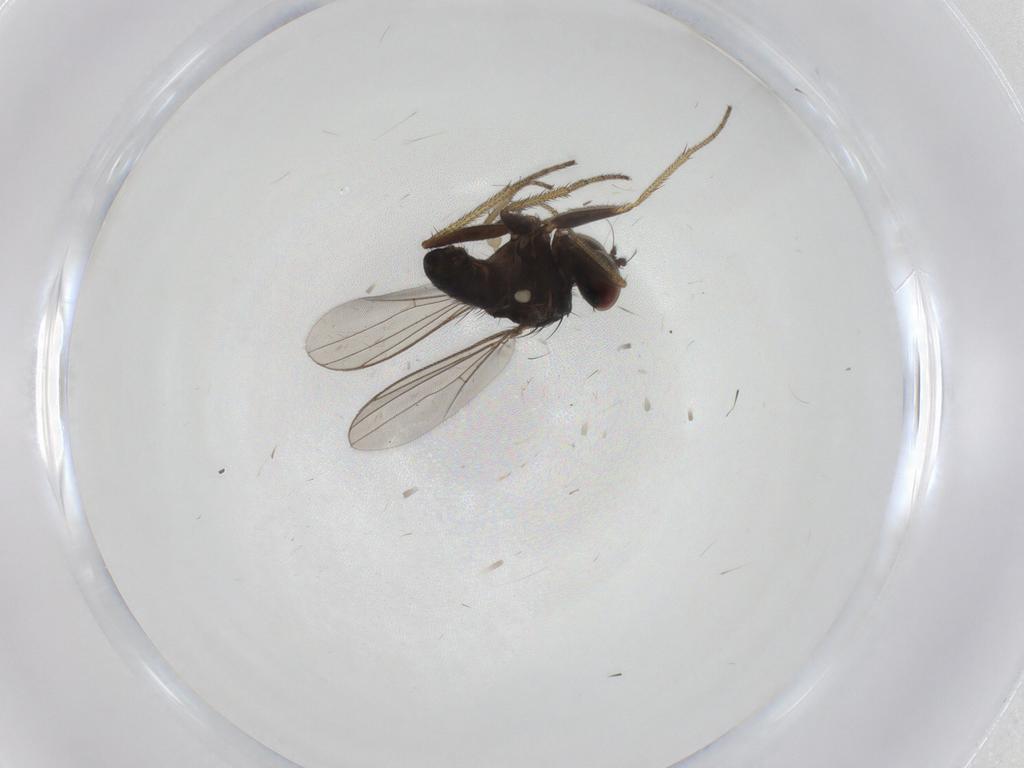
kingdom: Animalia
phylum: Arthropoda
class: Insecta
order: Diptera
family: Dolichopodidae
